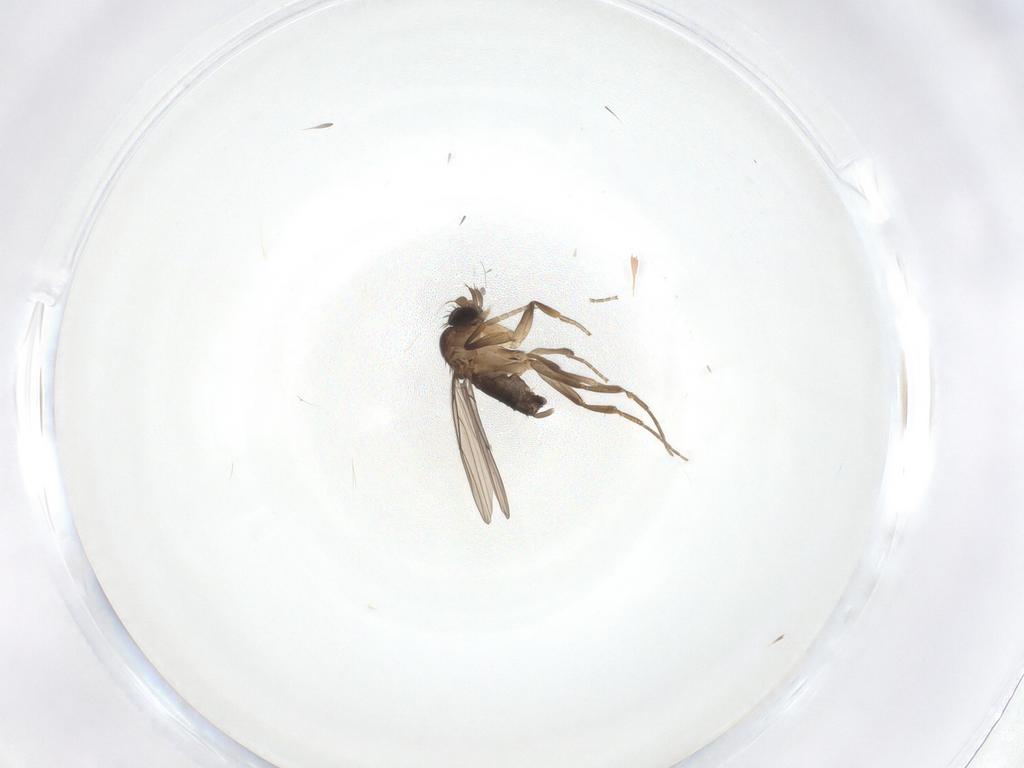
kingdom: Animalia
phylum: Arthropoda
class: Insecta
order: Diptera
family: Phoridae
